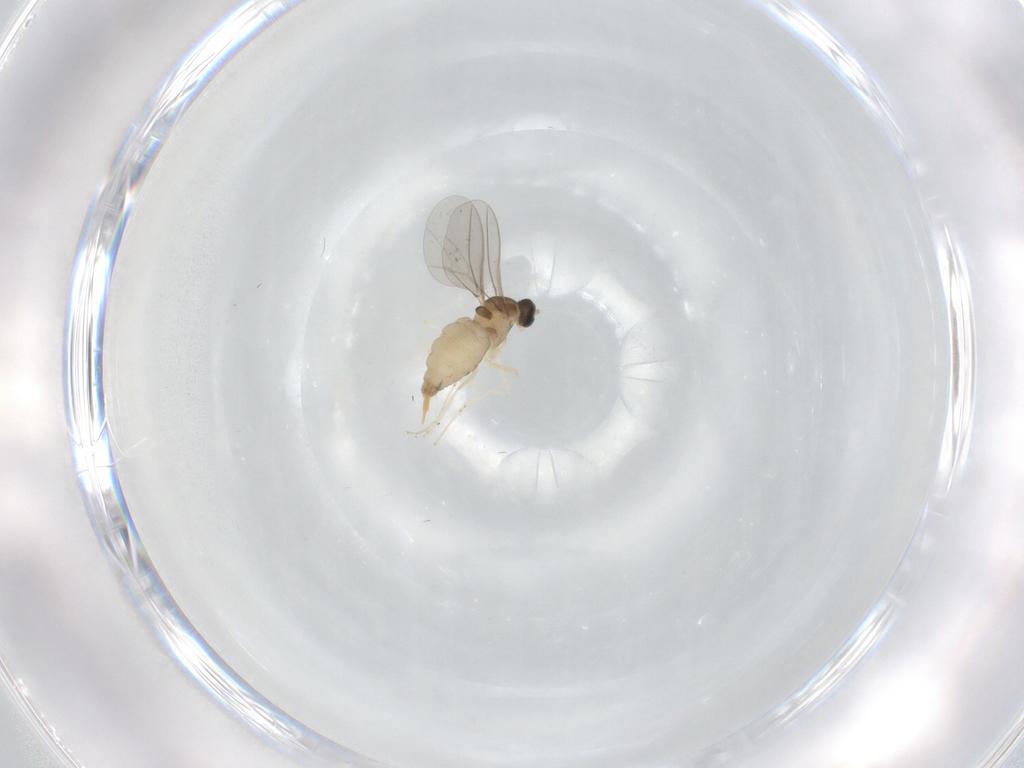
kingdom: Animalia
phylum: Arthropoda
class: Insecta
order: Diptera
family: Cecidomyiidae
